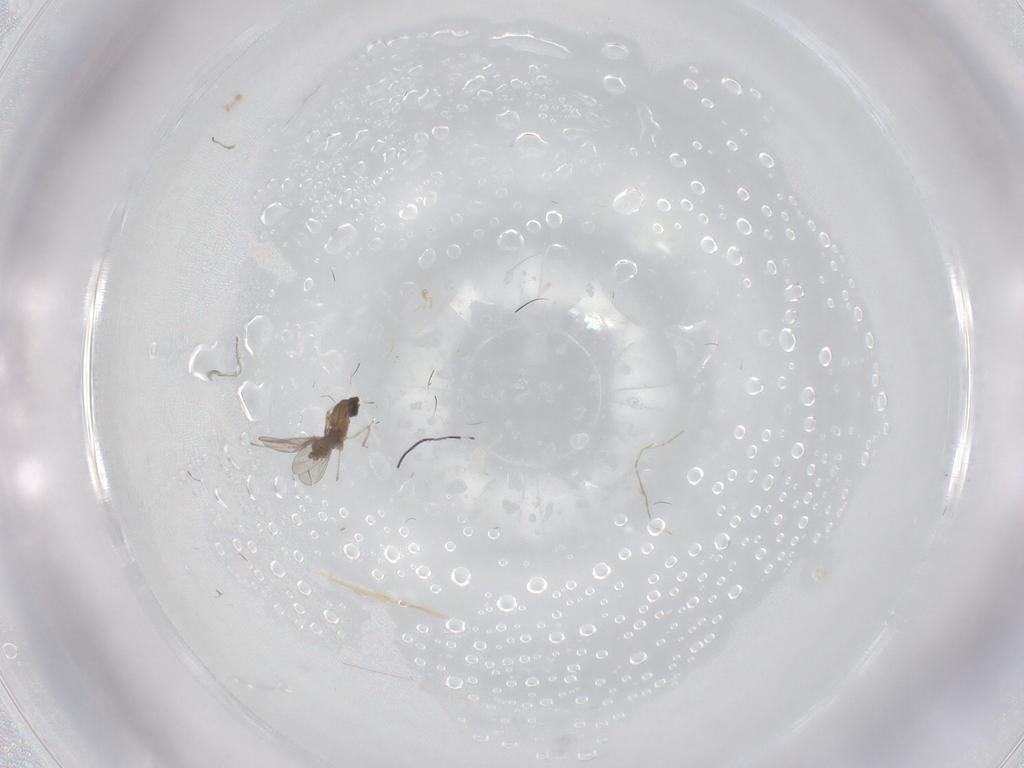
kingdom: Animalia
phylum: Arthropoda
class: Insecta
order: Diptera
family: Cecidomyiidae
